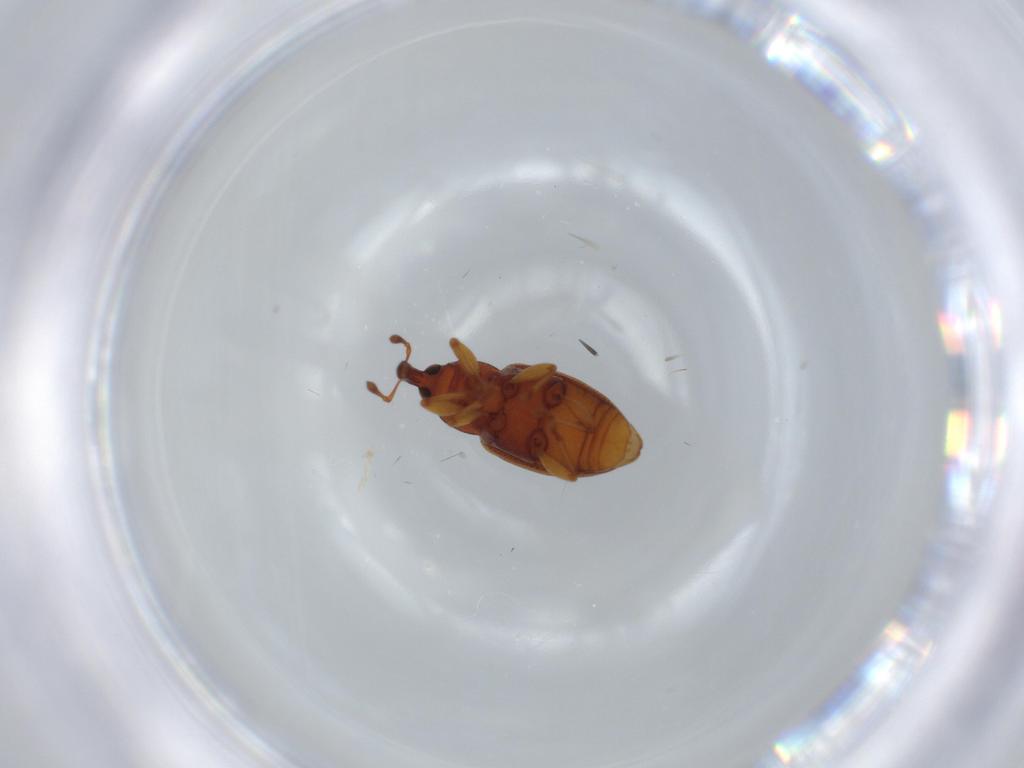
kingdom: Animalia
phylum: Arthropoda
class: Insecta
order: Coleoptera
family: Curculionidae
